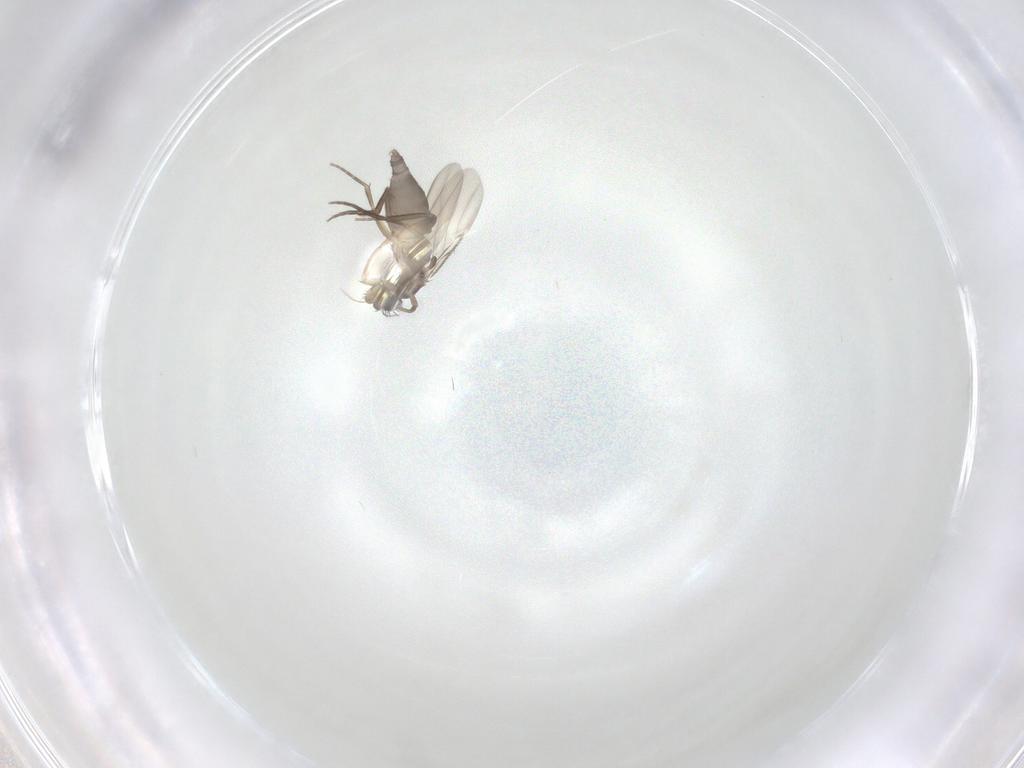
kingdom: Animalia
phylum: Arthropoda
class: Insecta
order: Diptera
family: Phoridae
